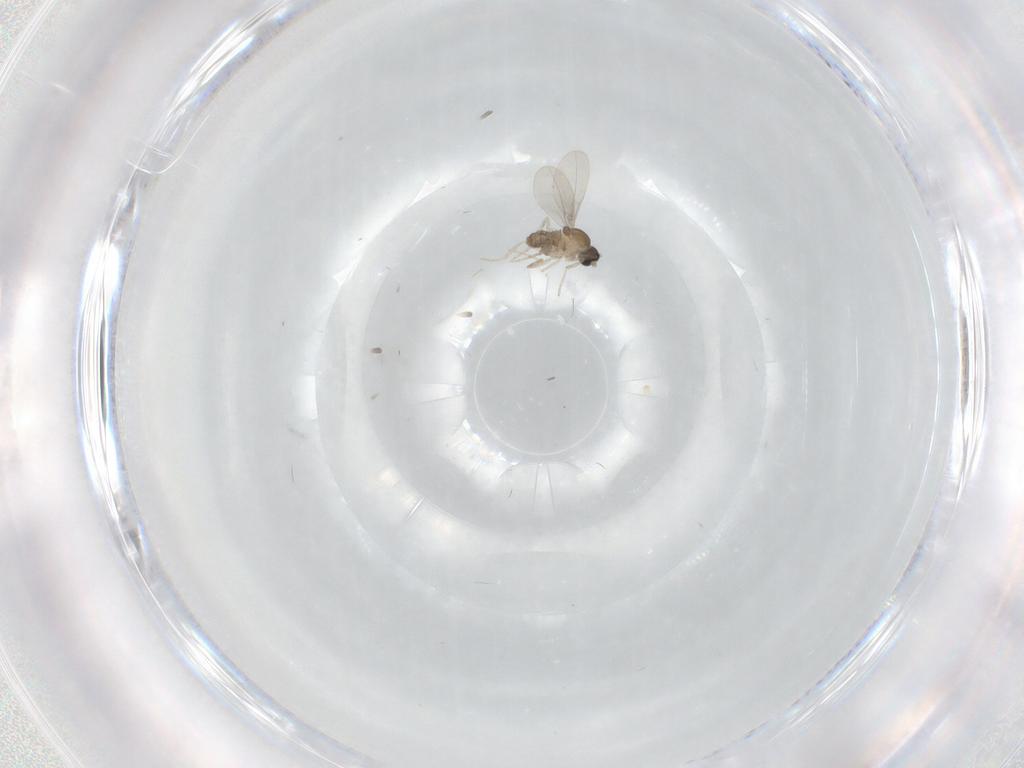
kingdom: Animalia
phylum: Arthropoda
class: Insecta
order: Diptera
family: Cecidomyiidae
